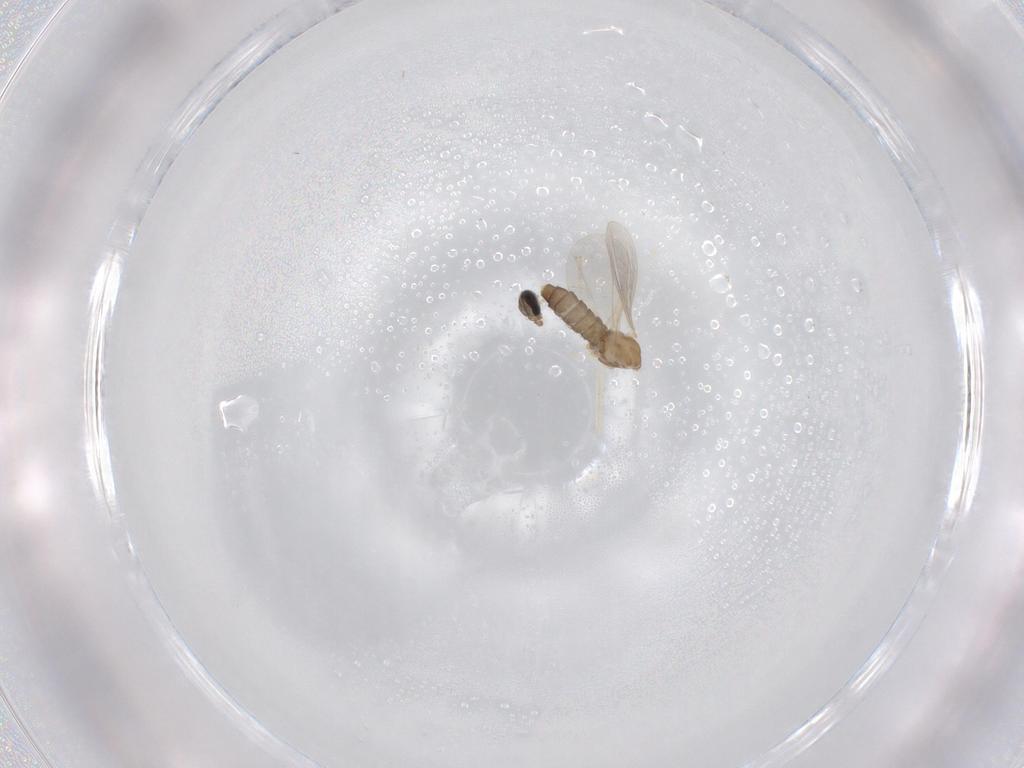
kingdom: Animalia
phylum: Arthropoda
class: Insecta
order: Diptera
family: Cecidomyiidae
